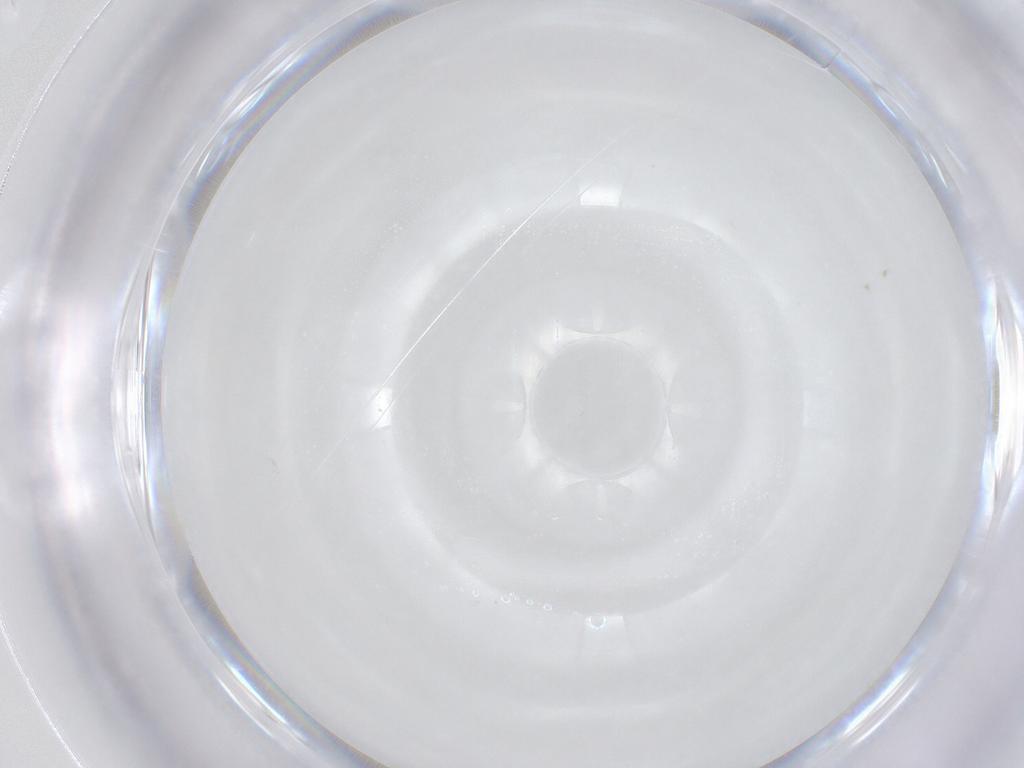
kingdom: Animalia
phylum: Arthropoda
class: Insecta
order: Diptera
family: Chloropidae
